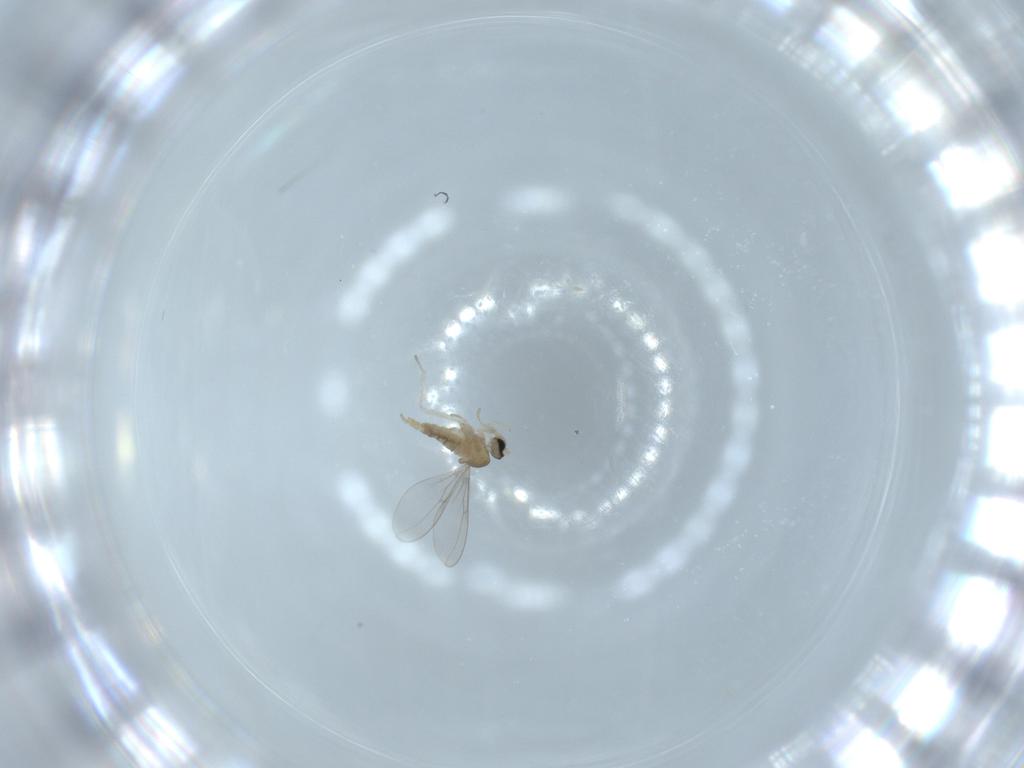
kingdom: Animalia
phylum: Arthropoda
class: Insecta
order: Diptera
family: Cecidomyiidae
